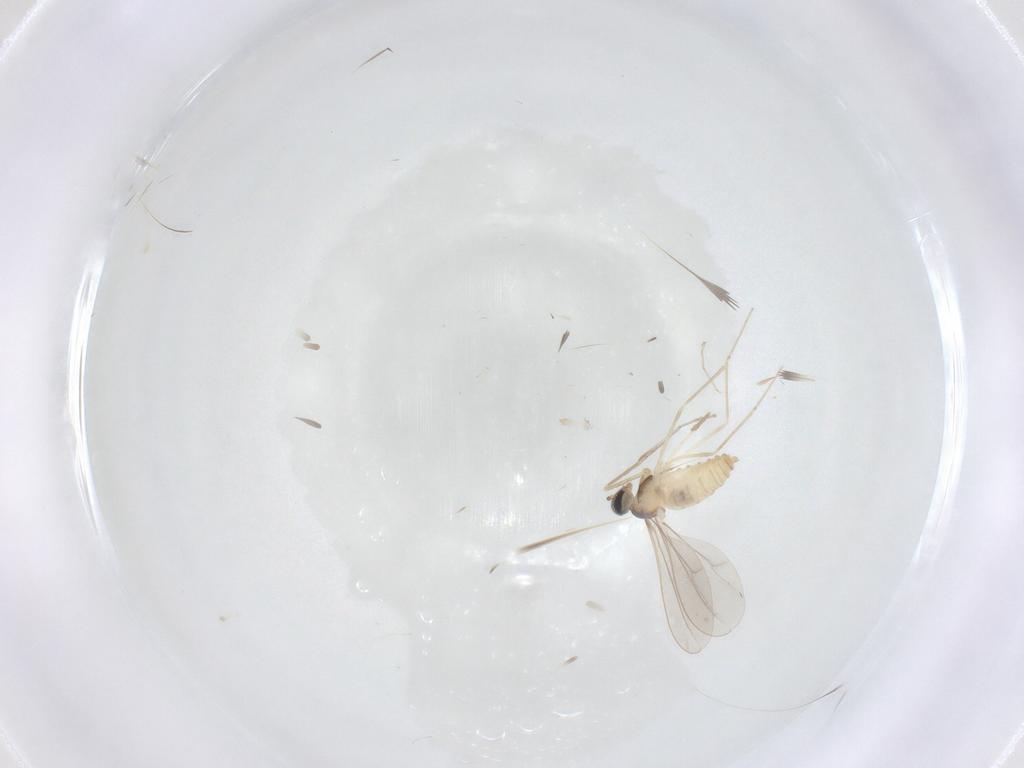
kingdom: Animalia
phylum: Arthropoda
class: Insecta
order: Diptera
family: Cecidomyiidae
